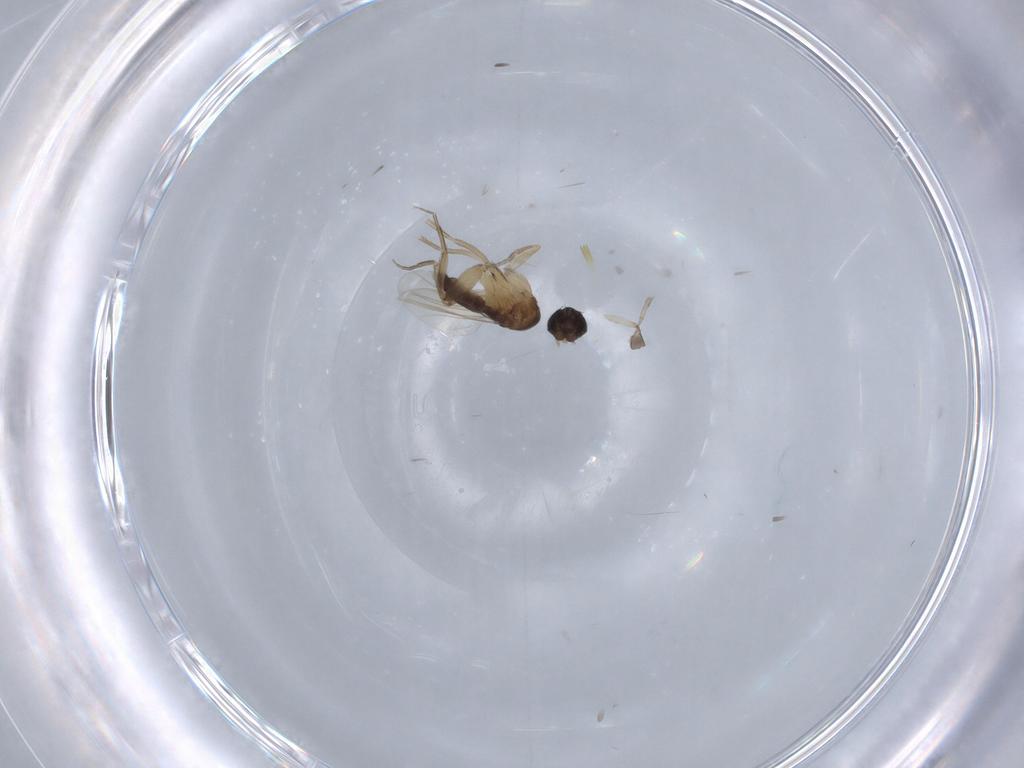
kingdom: Animalia
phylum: Arthropoda
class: Insecta
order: Diptera
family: Phoridae
